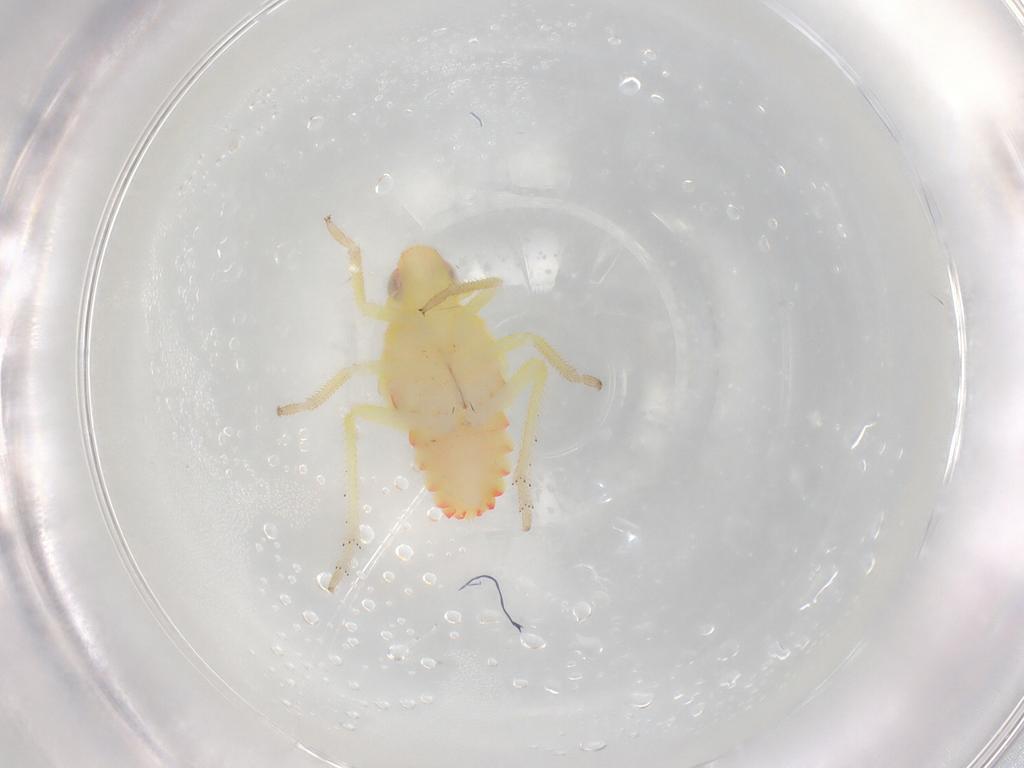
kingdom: Animalia
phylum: Arthropoda
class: Insecta
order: Hemiptera
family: Tropiduchidae
